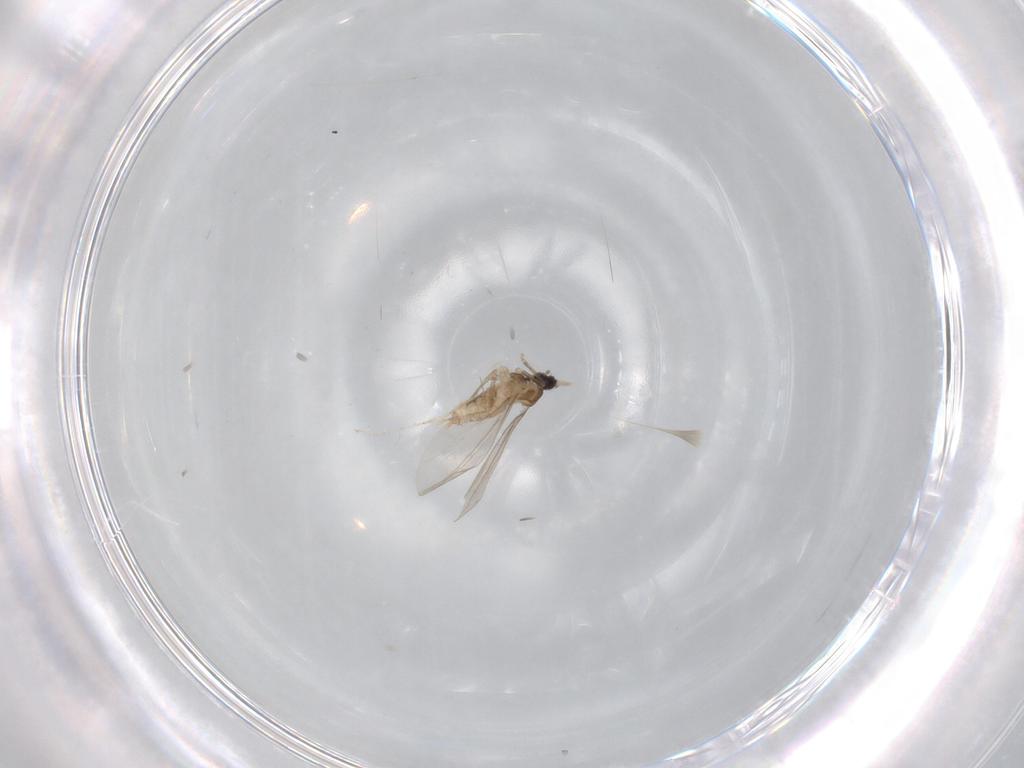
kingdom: Animalia
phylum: Arthropoda
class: Insecta
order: Diptera
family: Cecidomyiidae
